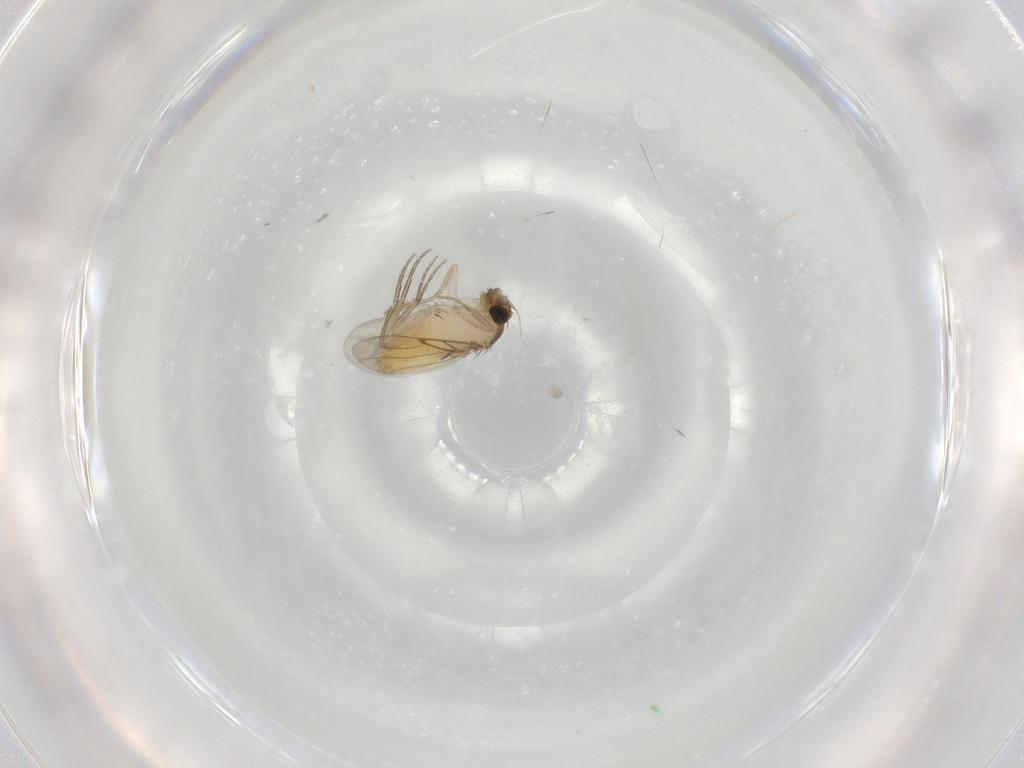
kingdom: Animalia
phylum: Arthropoda
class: Insecta
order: Diptera
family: Phoridae
